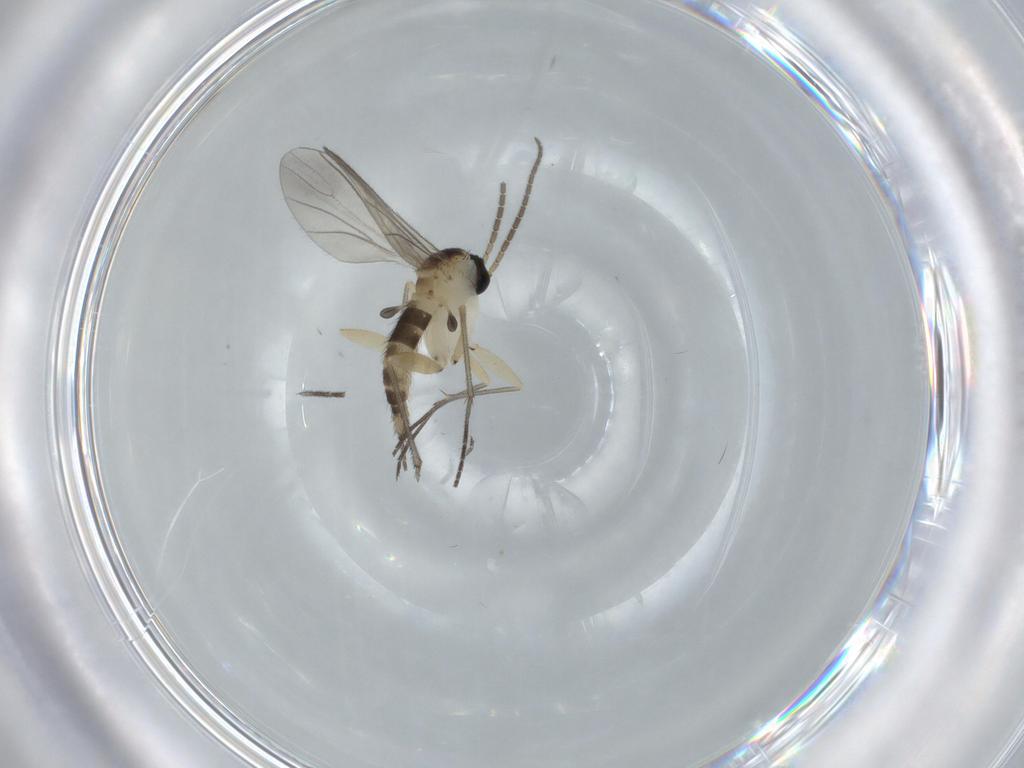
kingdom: Animalia
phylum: Arthropoda
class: Insecta
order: Diptera
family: Sciaridae
